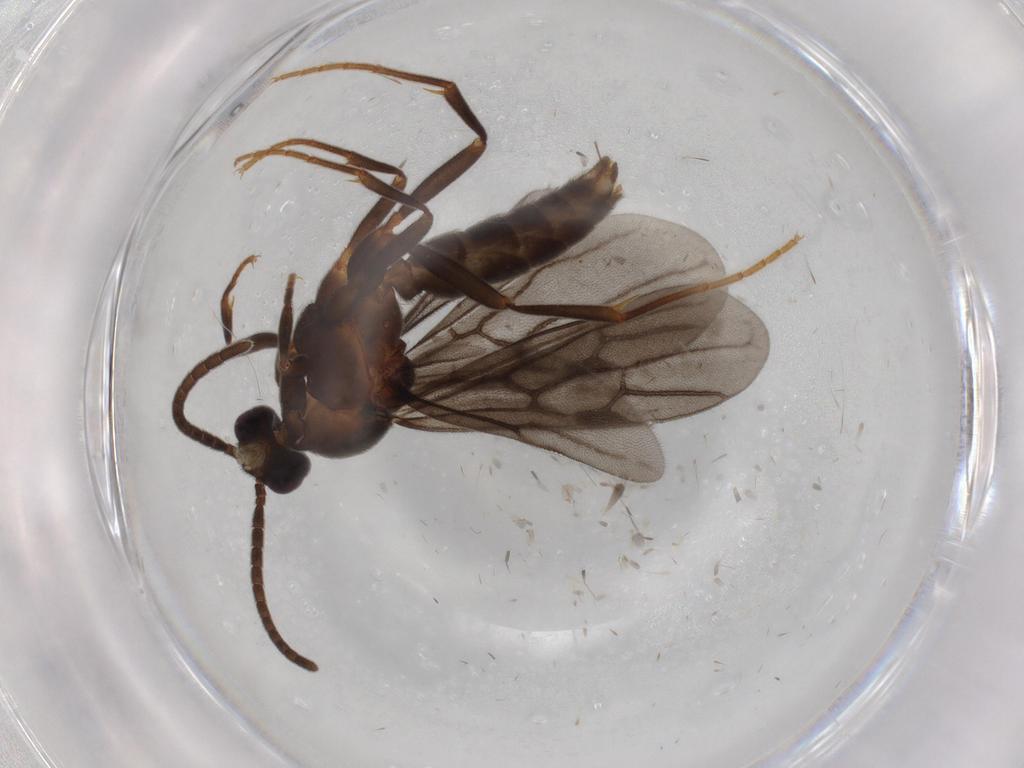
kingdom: Animalia
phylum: Arthropoda
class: Insecta
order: Hymenoptera
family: Formicidae
